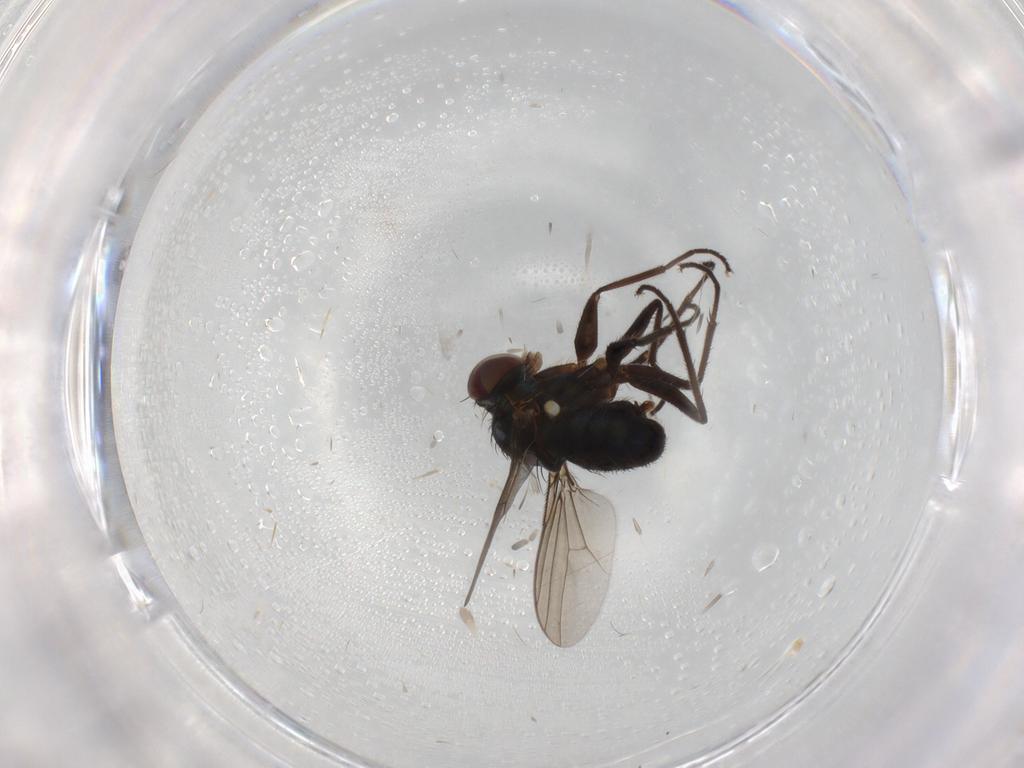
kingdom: Animalia
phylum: Arthropoda
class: Insecta
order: Diptera
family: Dolichopodidae
